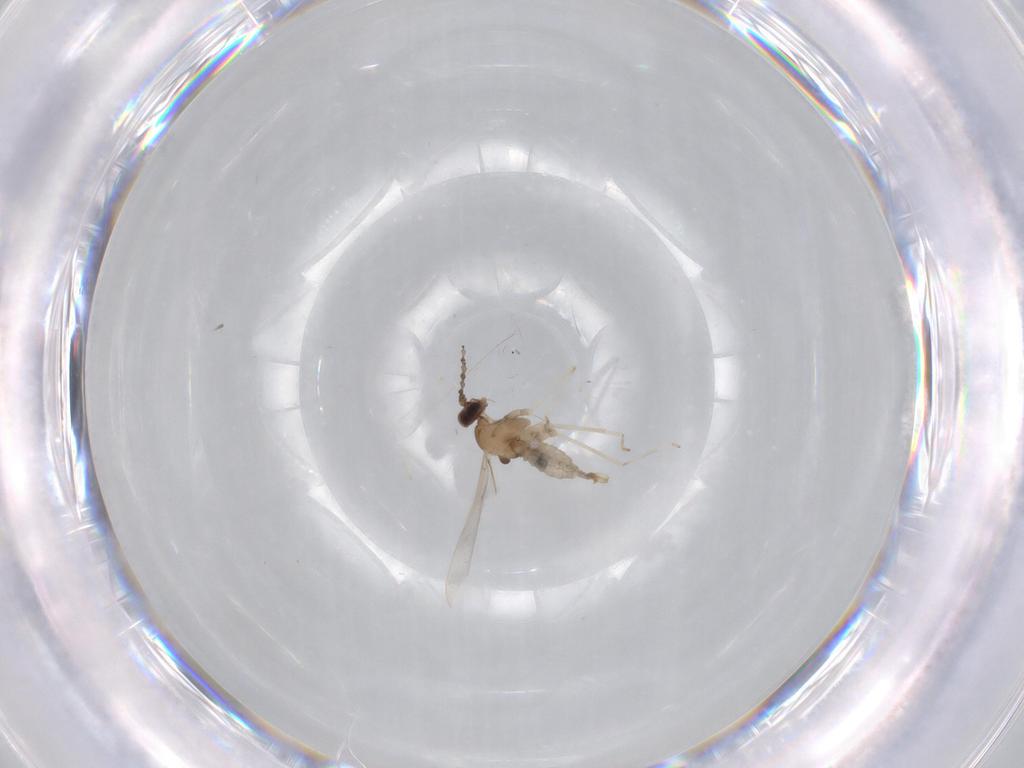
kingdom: Animalia
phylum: Arthropoda
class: Insecta
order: Diptera
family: Cecidomyiidae
